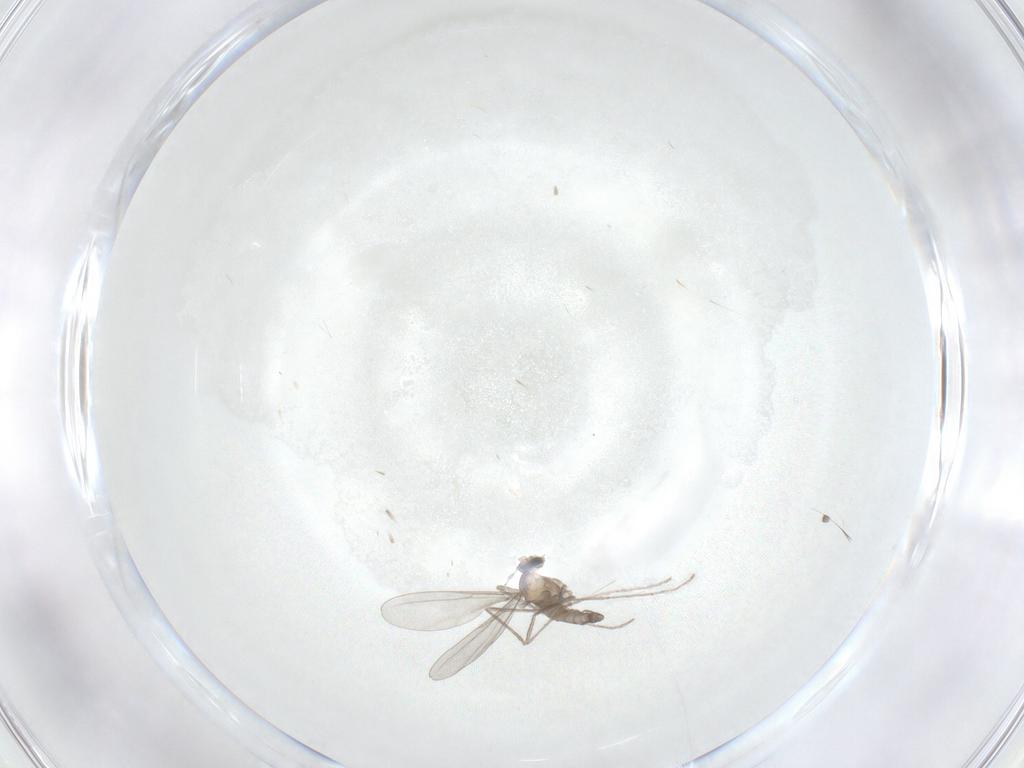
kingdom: Animalia
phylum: Arthropoda
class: Insecta
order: Diptera
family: Cecidomyiidae
